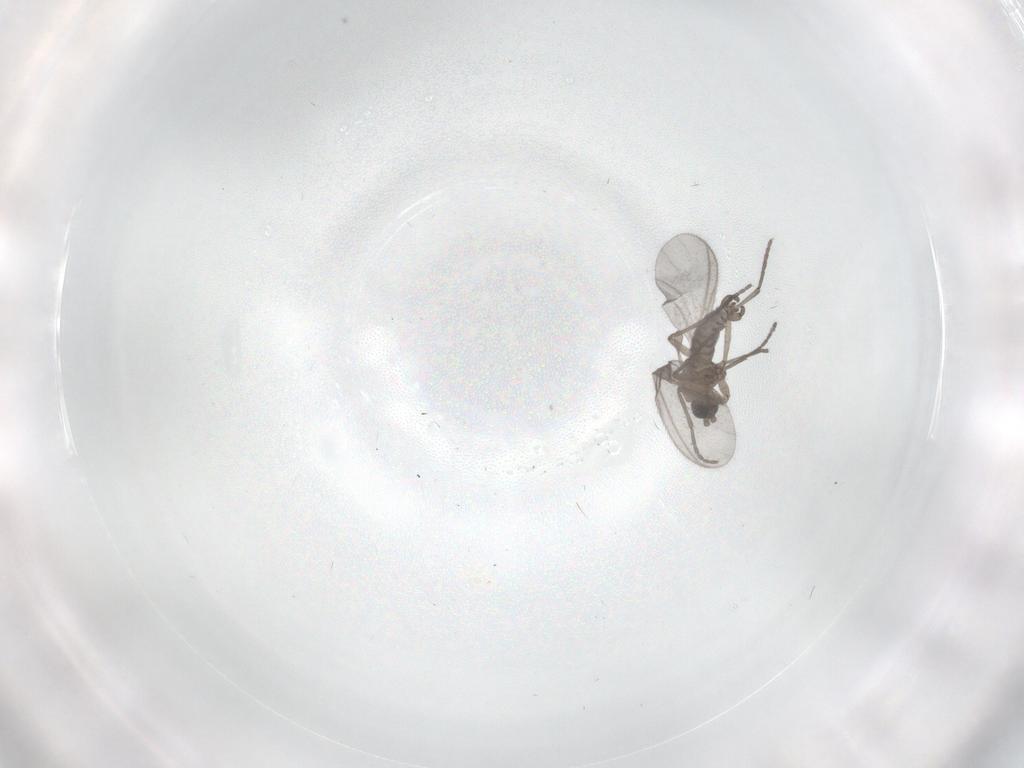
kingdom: Animalia
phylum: Arthropoda
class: Insecta
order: Diptera
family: Sciaridae
